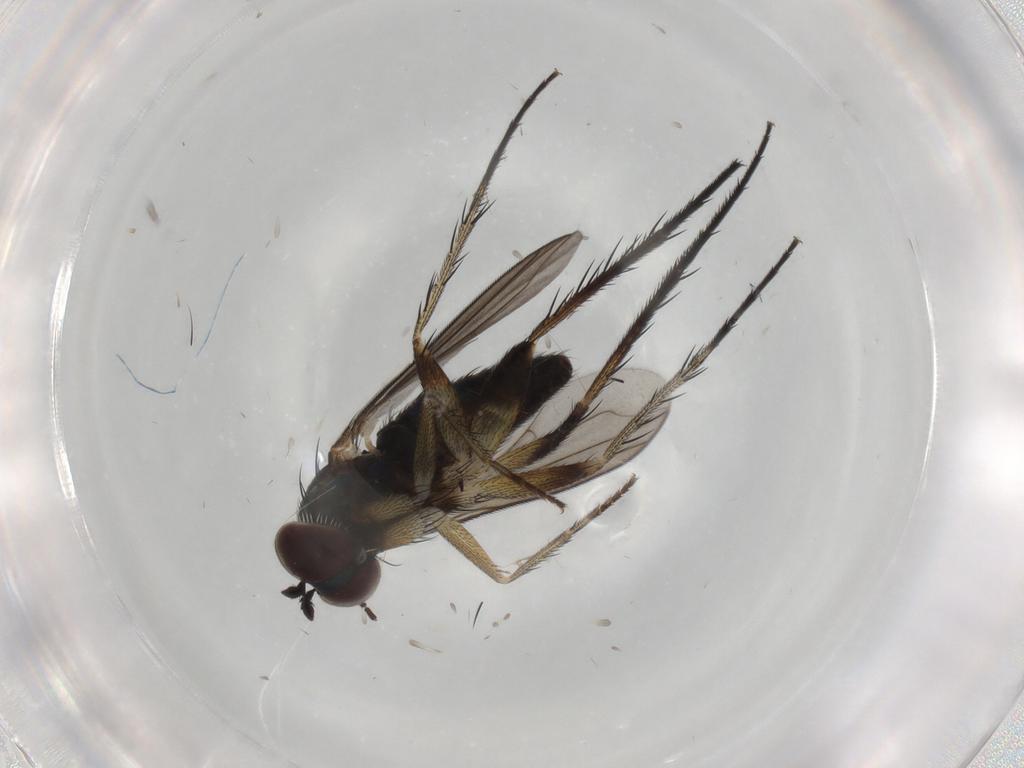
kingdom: Animalia
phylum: Arthropoda
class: Insecta
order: Diptera
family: Dolichopodidae
